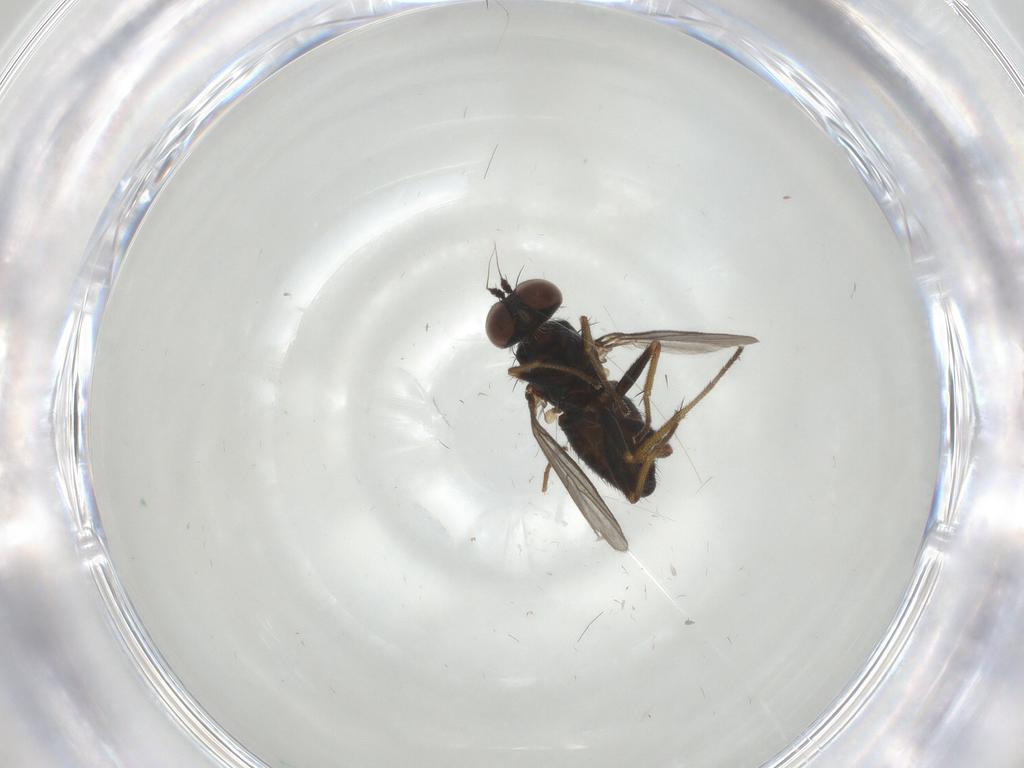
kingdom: Animalia
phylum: Arthropoda
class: Insecta
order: Diptera
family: Dolichopodidae
